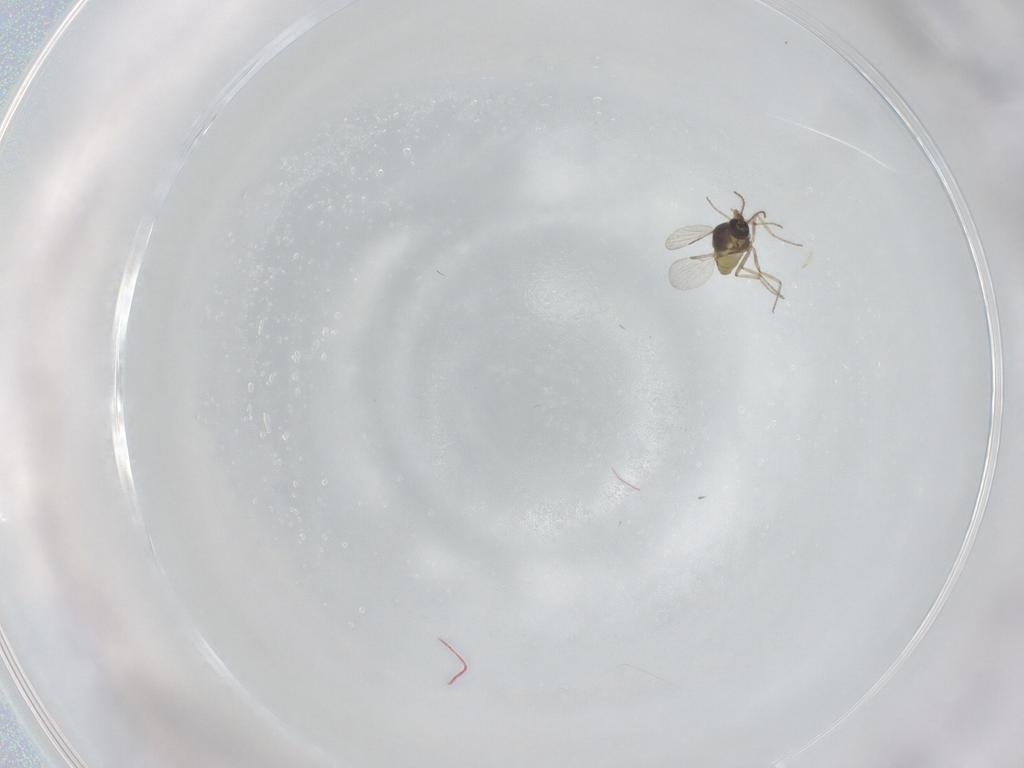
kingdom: Animalia
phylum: Arthropoda
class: Insecta
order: Diptera
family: Ceratopogonidae
